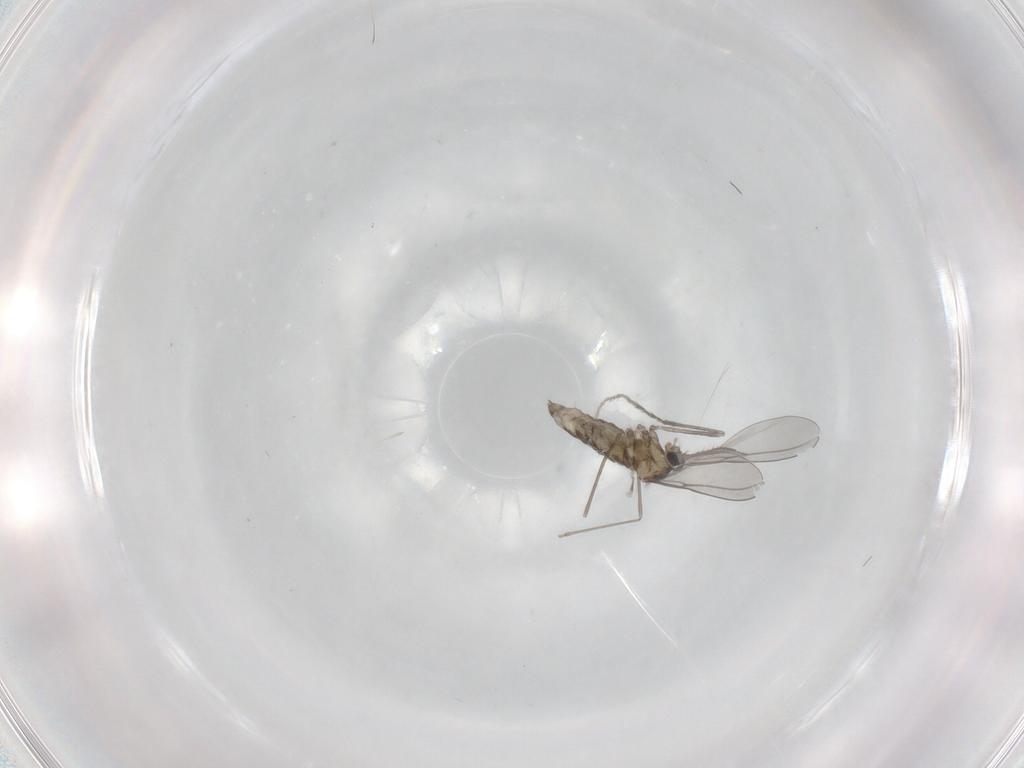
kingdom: Animalia
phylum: Arthropoda
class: Insecta
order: Diptera
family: Cecidomyiidae
